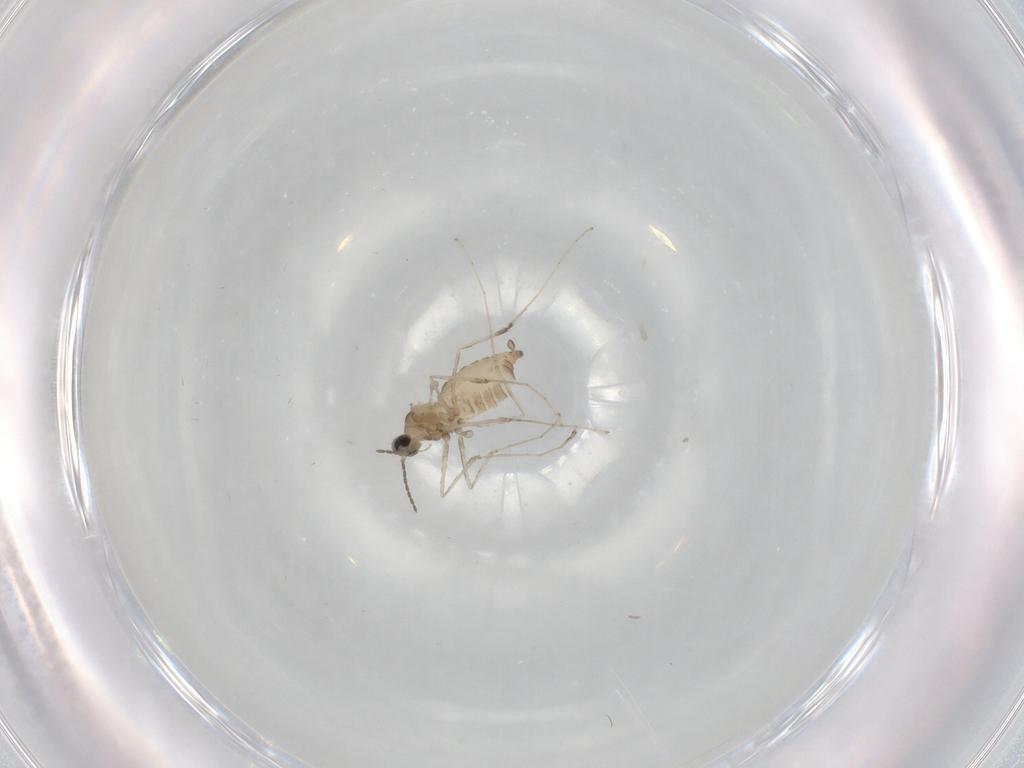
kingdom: Animalia
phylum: Arthropoda
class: Insecta
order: Diptera
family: Cecidomyiidae
